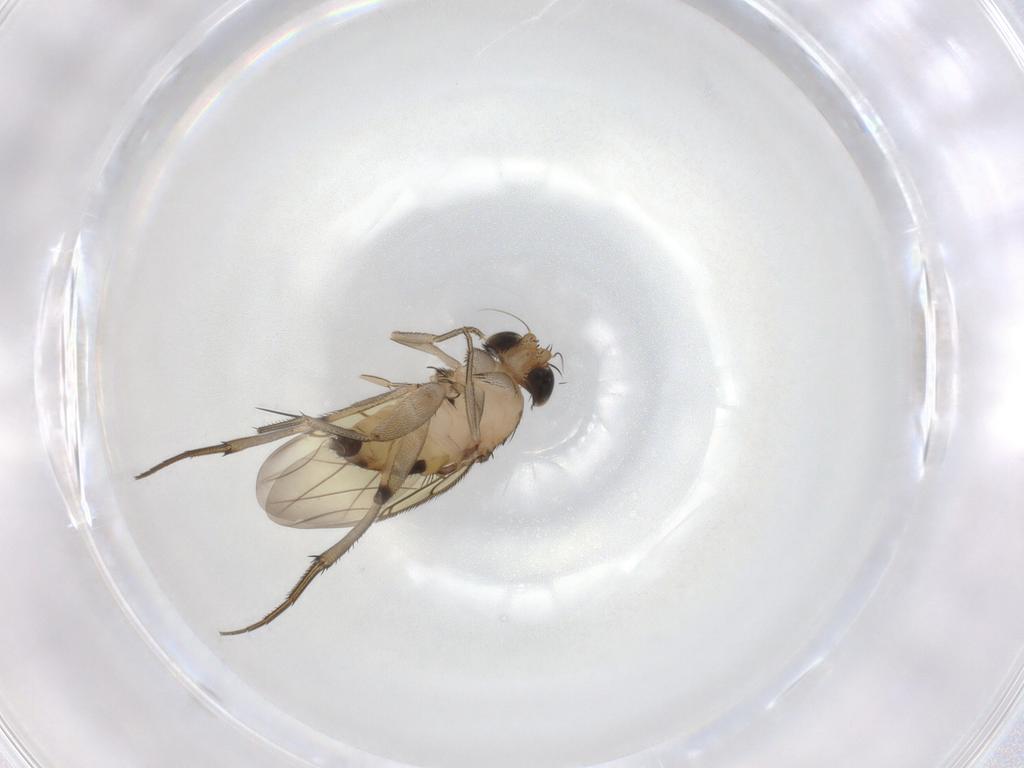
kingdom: Animalia
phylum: Arthropoda
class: Insecta
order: Diptera
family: Phoridae
